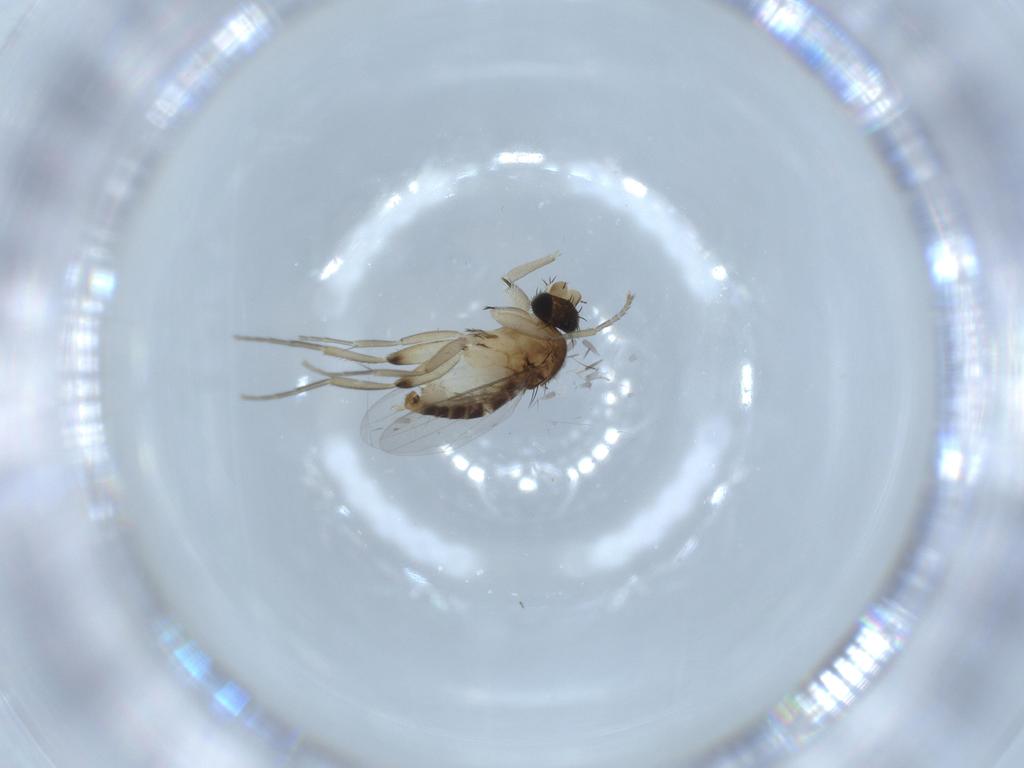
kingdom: Animalia
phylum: Arthropoda
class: Insecta
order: Diptera
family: Phoridae
